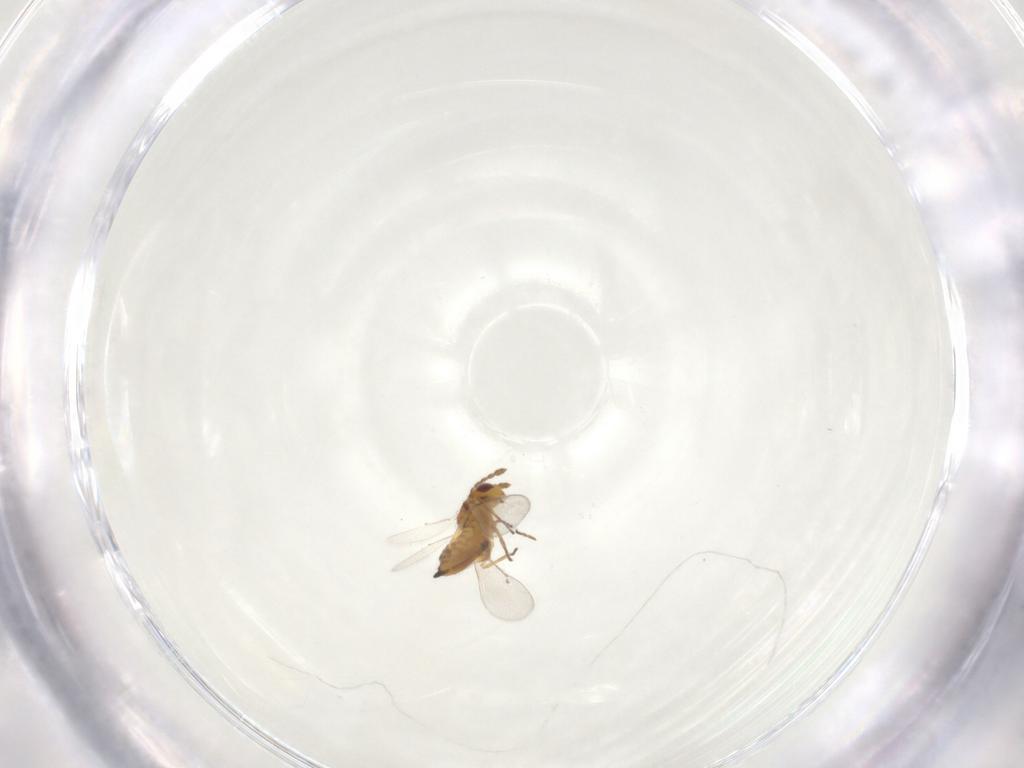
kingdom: Animalia
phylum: Arthropoda
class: Insecta
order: Hymenoptera
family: Eulophidae
